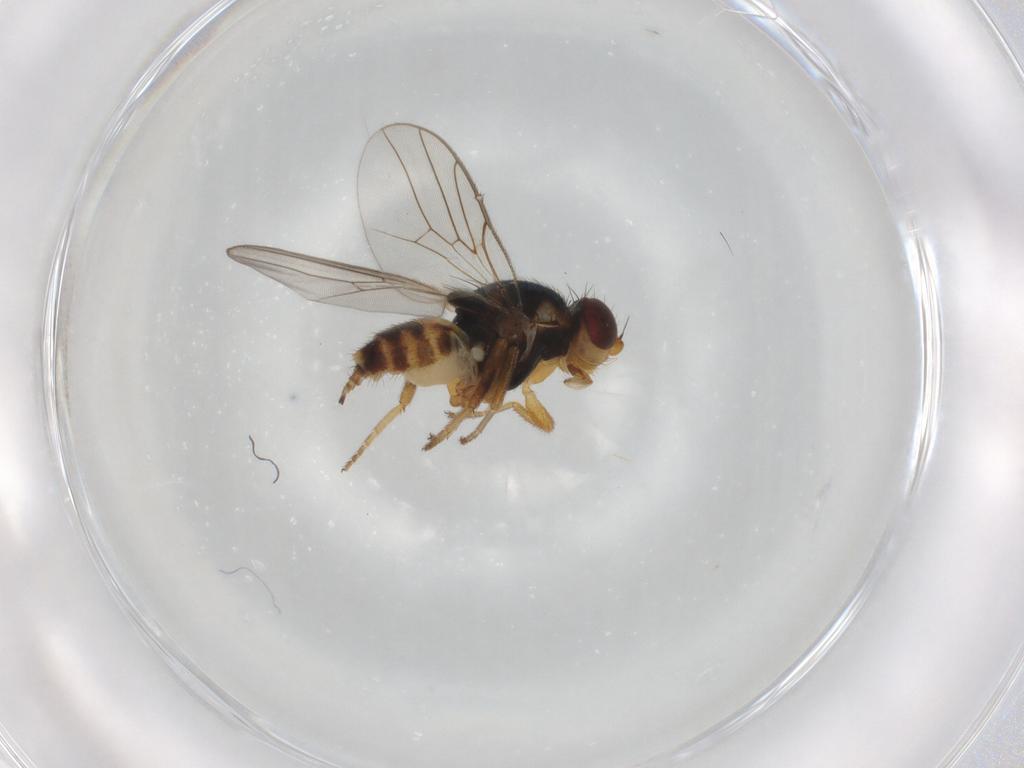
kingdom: Animalia
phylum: Arthropoda
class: Insecta
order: Diptera
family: Chloropidae
